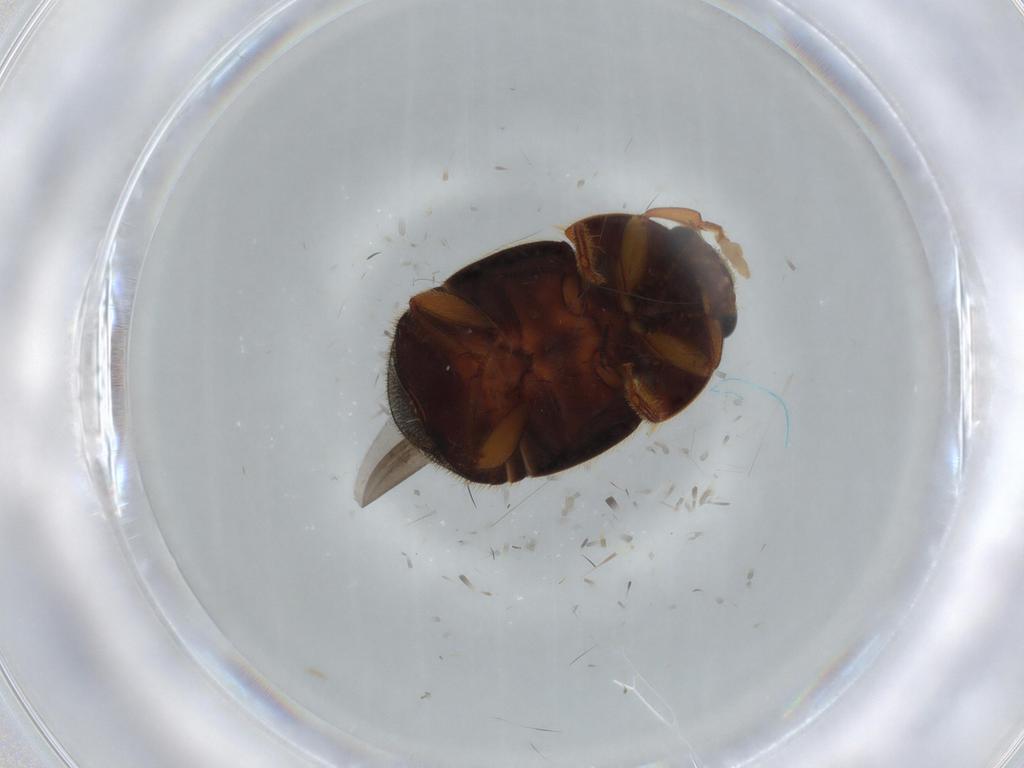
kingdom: Animalia
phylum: Arthropoda
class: Insecta
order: Coleoptera
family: Nitidulidae
